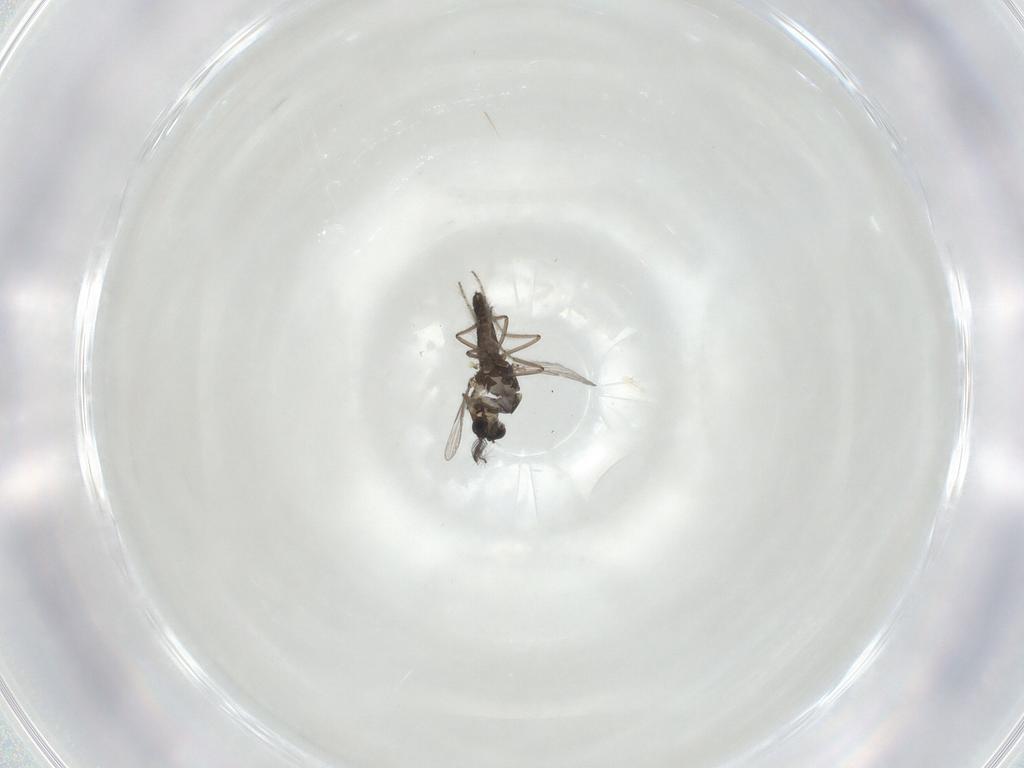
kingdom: Animalia
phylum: Arthropoda
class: Insecta
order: Diptera
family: Ceratopogonidae
